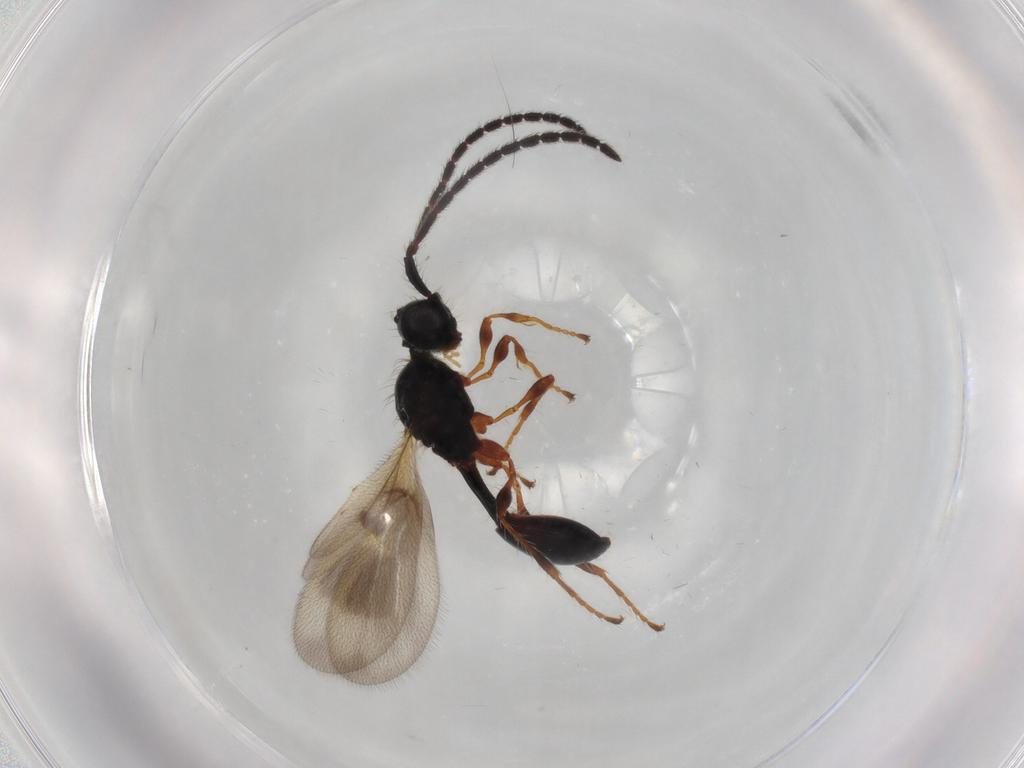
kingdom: Animalia
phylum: Arthropoda
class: Insecta
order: Hymenoptera
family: Diapriidae
